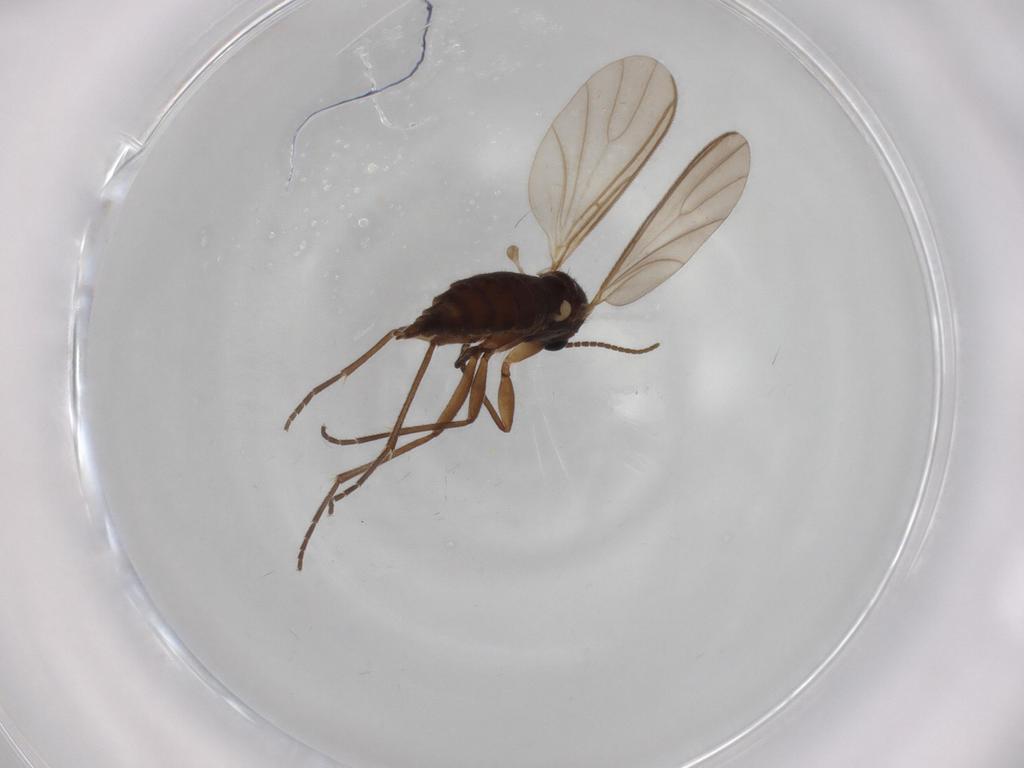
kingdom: Animalia
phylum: Arthropoda
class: Insecta
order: Diptera
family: Sciaridae
